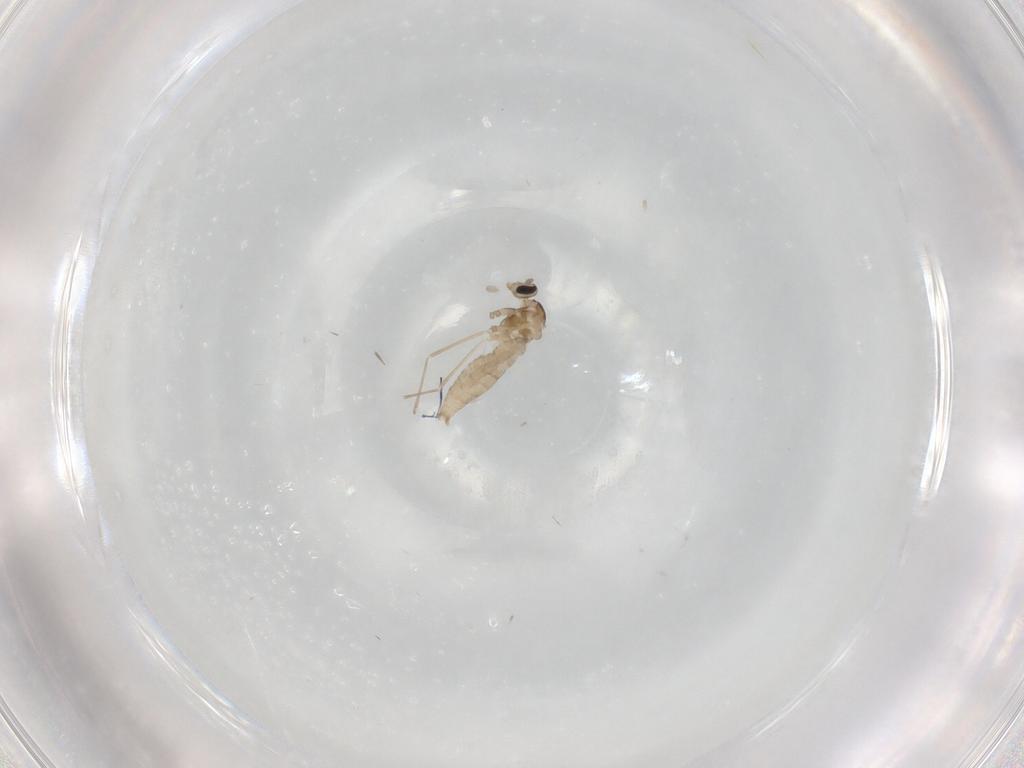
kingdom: Animalia
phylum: Arthropoda
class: Insecta
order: Diptera
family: Cecidomyiidae
